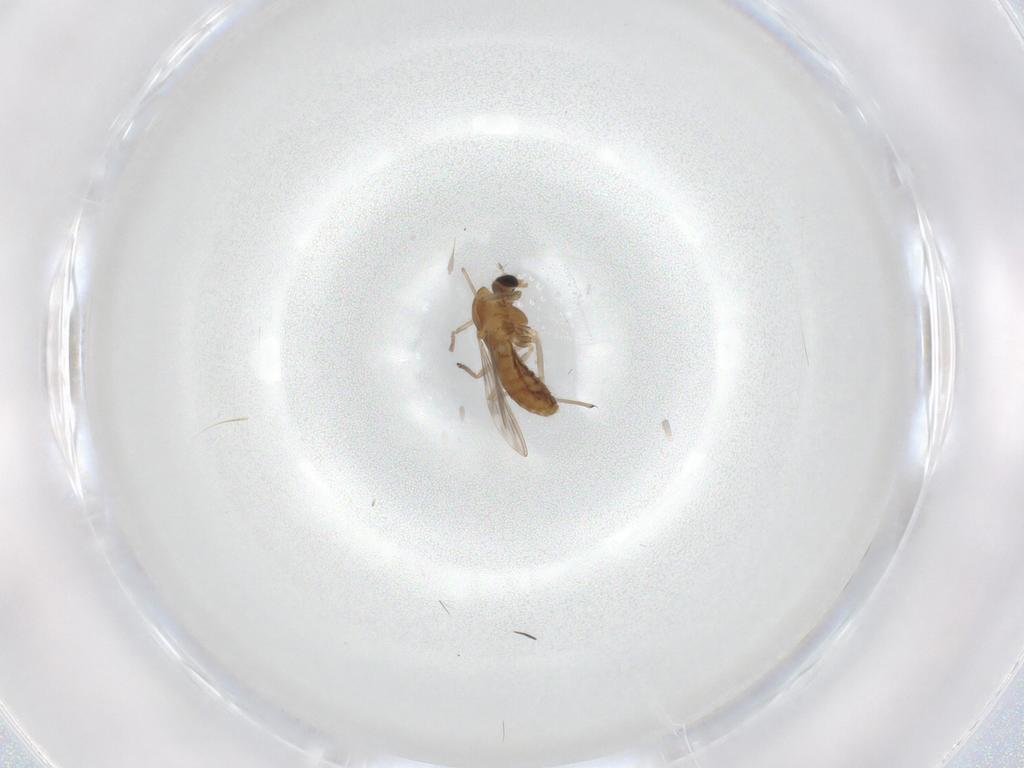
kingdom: Animalia
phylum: Arthropoda
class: Insecta
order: Diptera
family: Chironomidae
